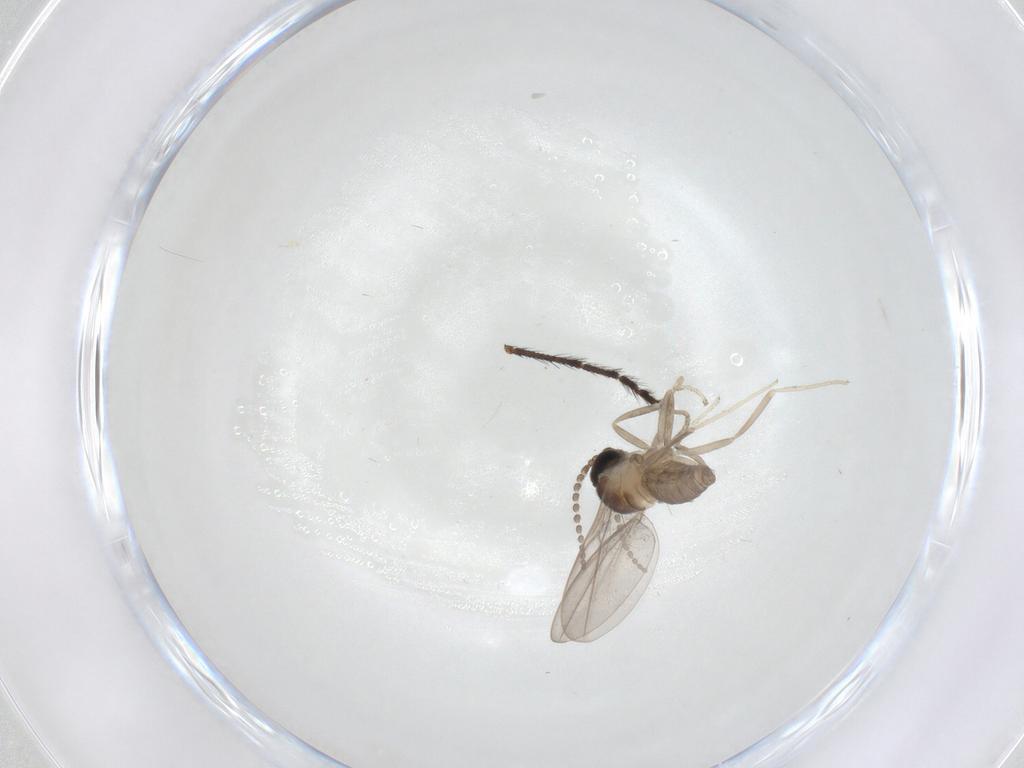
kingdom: Animalia
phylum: Arthropoda
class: Insecta
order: Diptera
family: Cecidomyiidae
